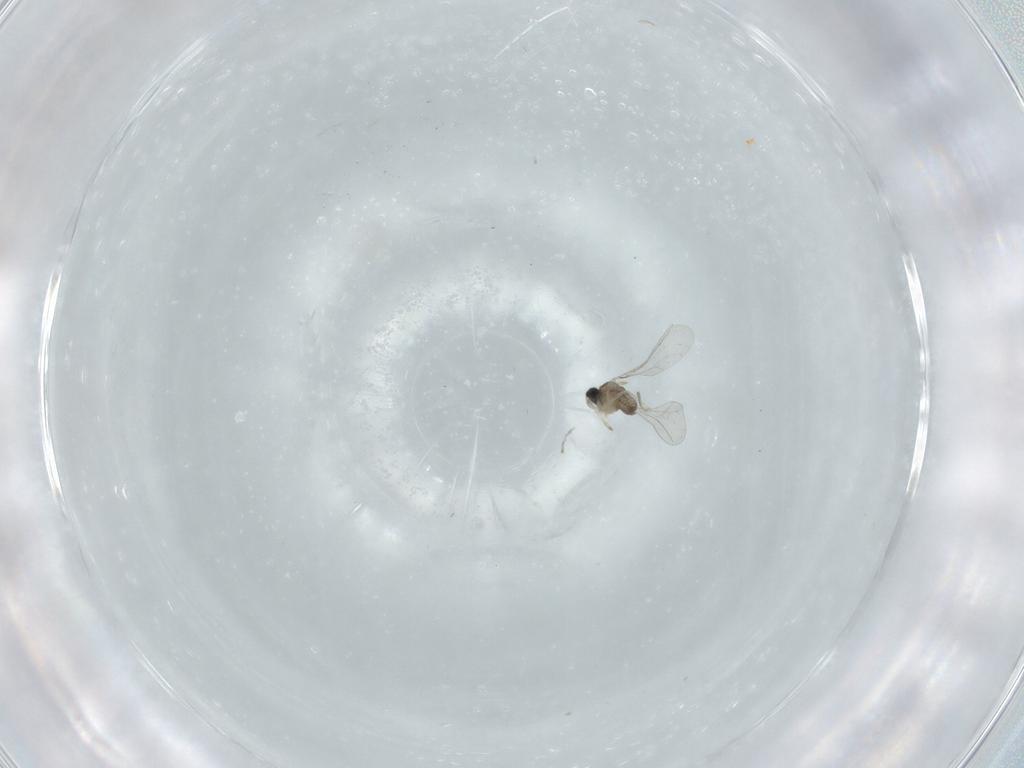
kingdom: Animalia
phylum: Arthropoda
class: Insecta
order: Diptera
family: Cecidomyiidae
